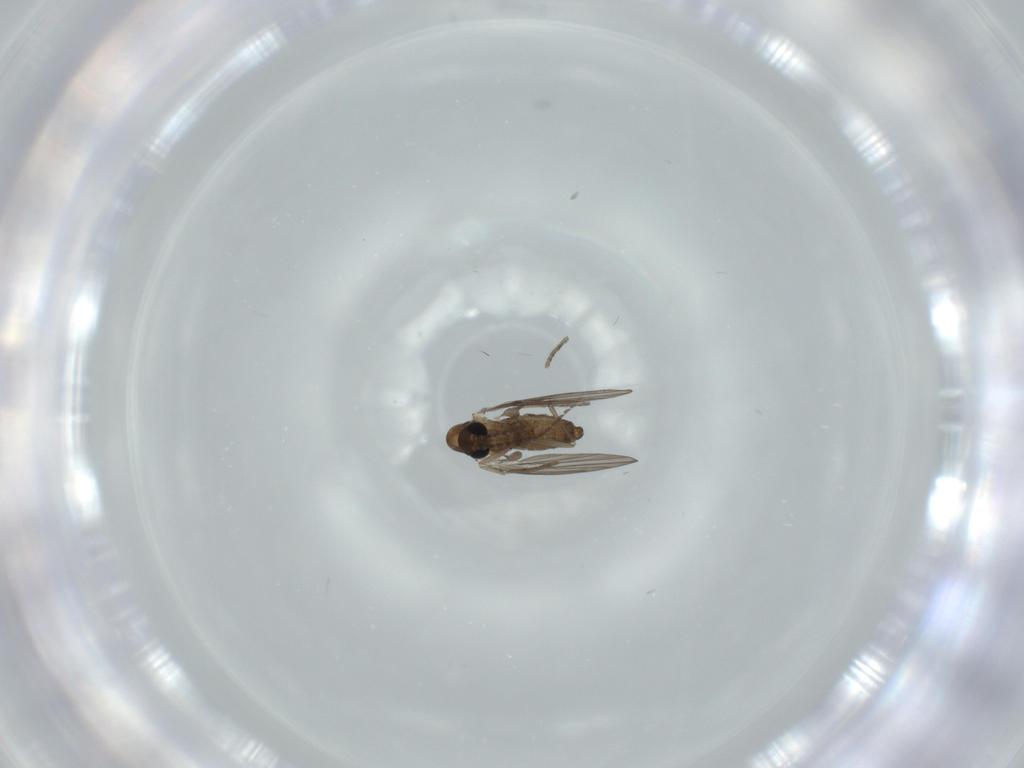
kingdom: Animalia
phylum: Arthropoda
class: Insecta
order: Diptera
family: Psychodidae
